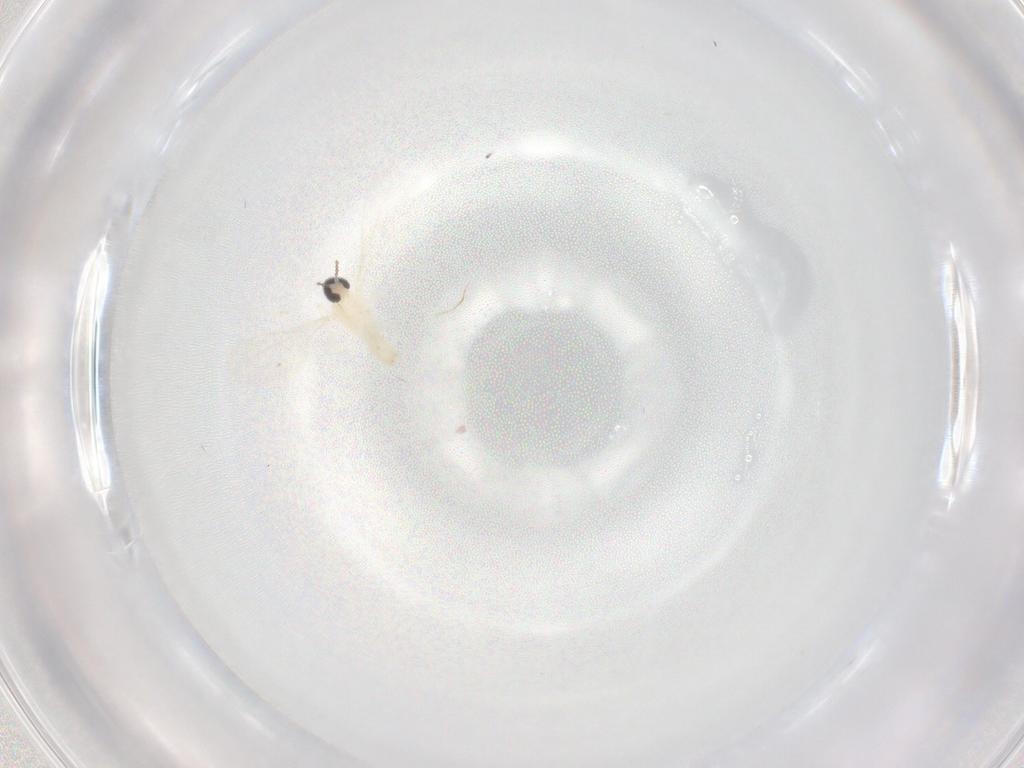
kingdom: Animalia
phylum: Arthropoda
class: Insecta
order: Diptera
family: Cecidomyiidae
